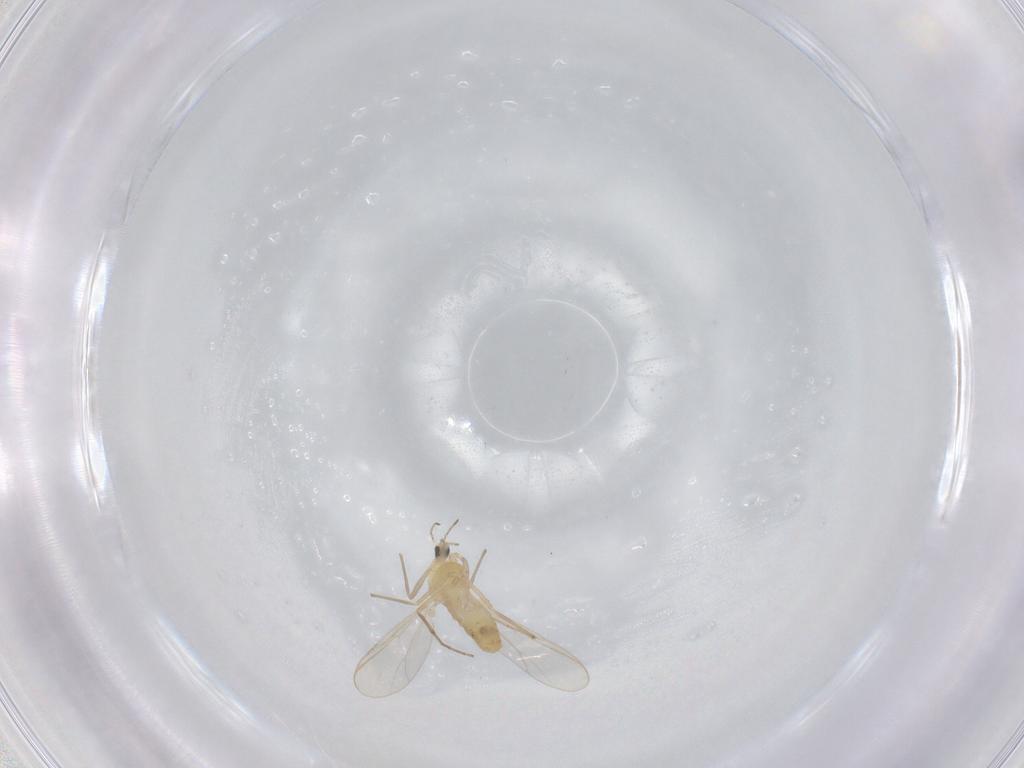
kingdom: Animalia
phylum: Arthropoda
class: Insecta
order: Diptera
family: Chironomidae
